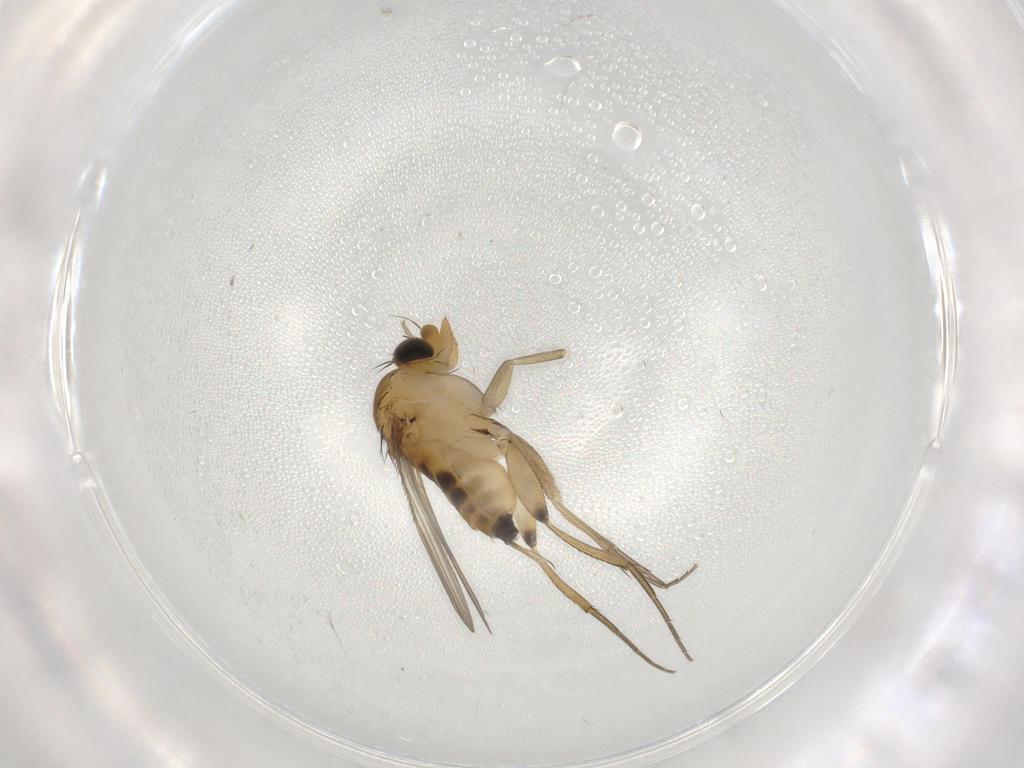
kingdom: Animalia
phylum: Arthropoda
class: Insecta
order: Diptera
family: Phoridae
